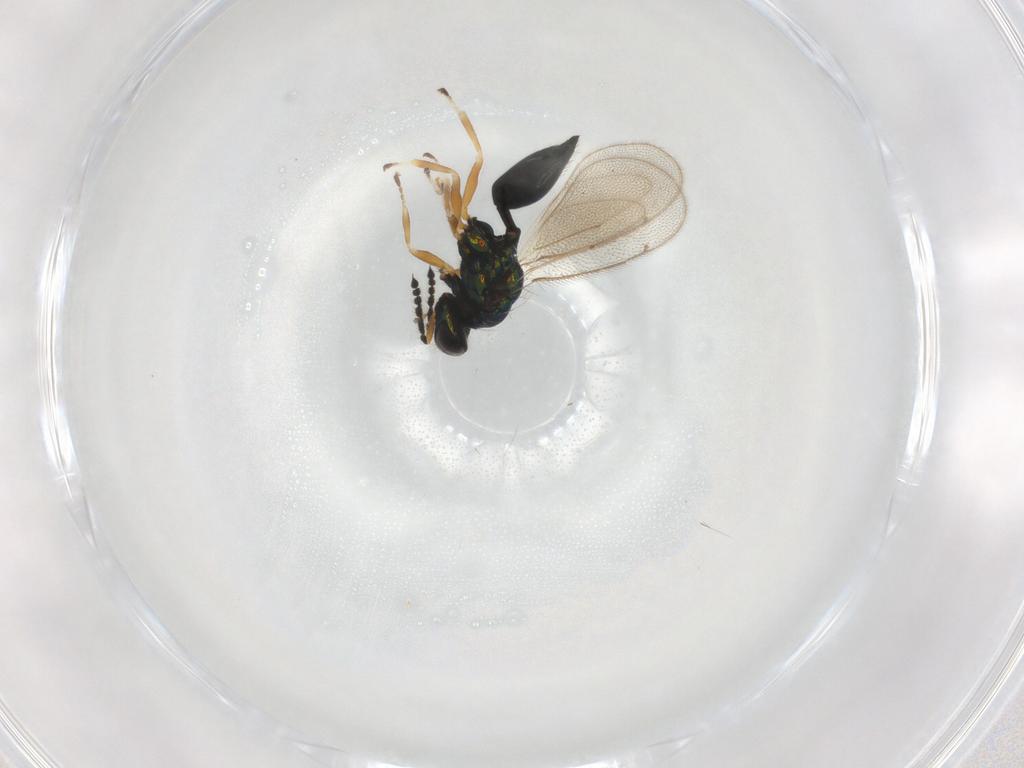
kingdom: Animalia
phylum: Arthropoda
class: Insecta
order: Hymenoptera
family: Eulophidae
